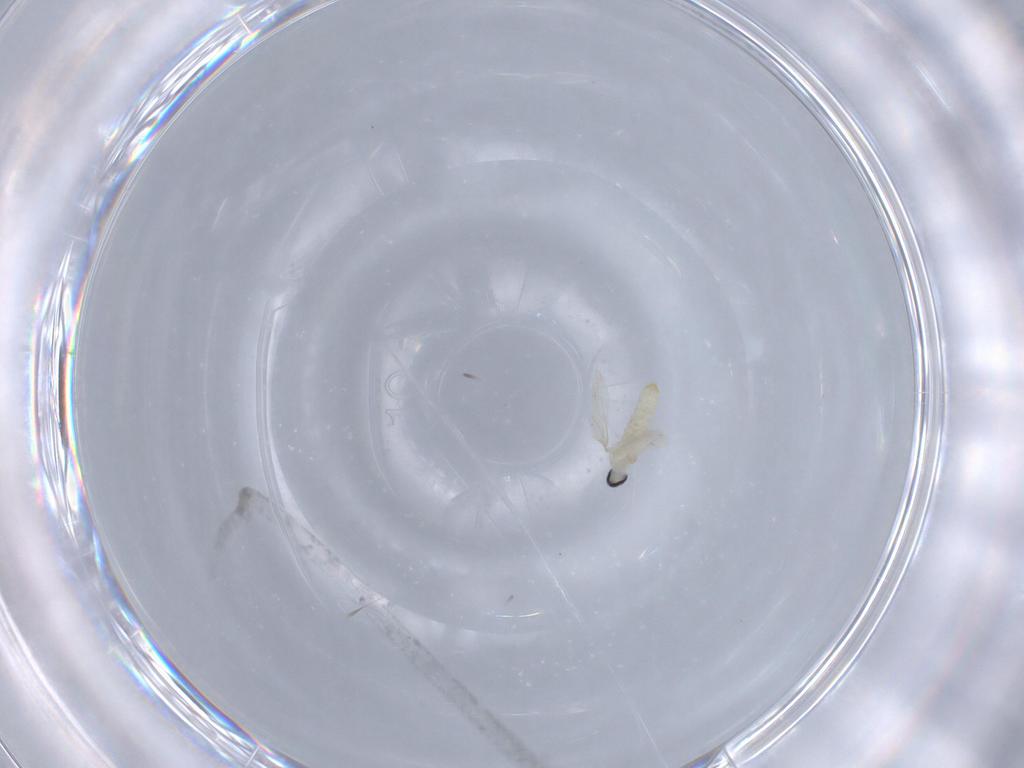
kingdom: Animalia
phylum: Arthropoda
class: Insecta
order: Diptera
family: Cecidomyiidae
